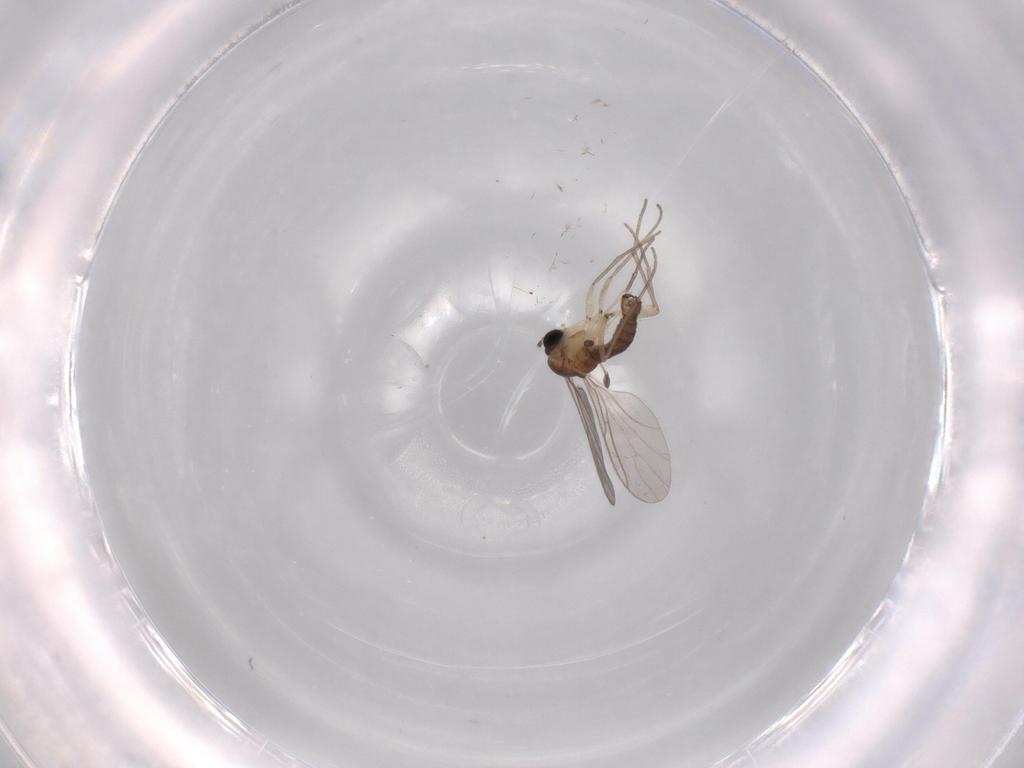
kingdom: Animalia
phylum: Arthropoda
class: Insecta
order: Diptera
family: Sciaridae
